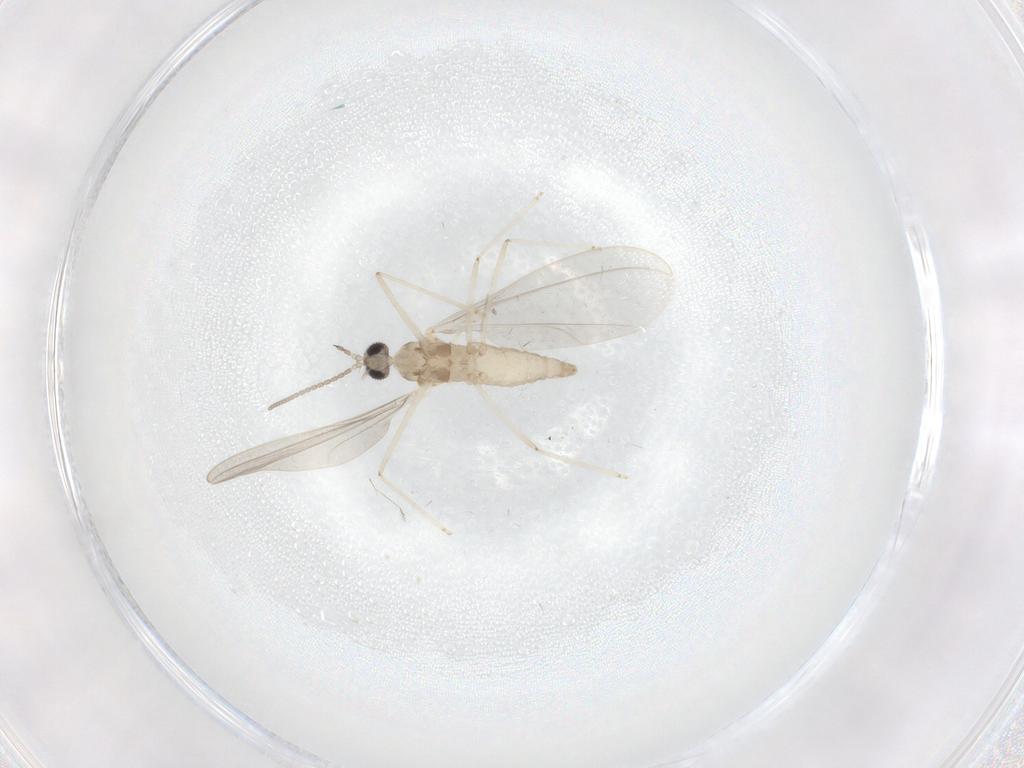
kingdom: Animalia
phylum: Arthropoda
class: Insecta
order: Diptera
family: Cecidomyiidae
